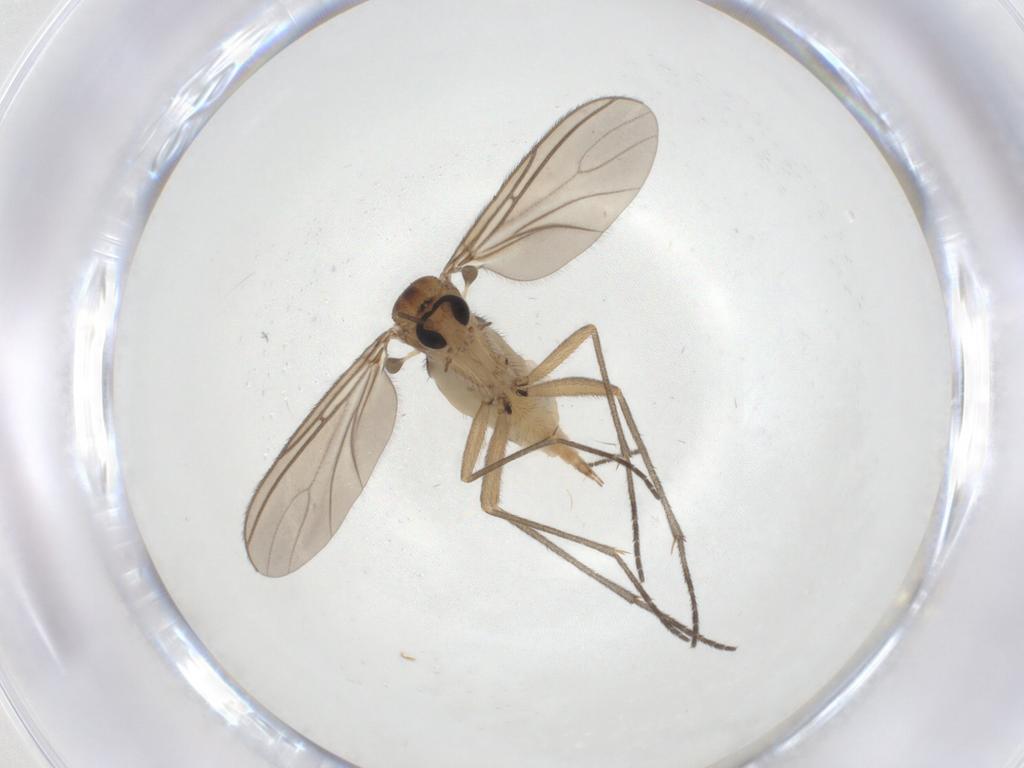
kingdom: Animalia
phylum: Arthropoda
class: Insecta
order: Diptera
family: Sciaridae
